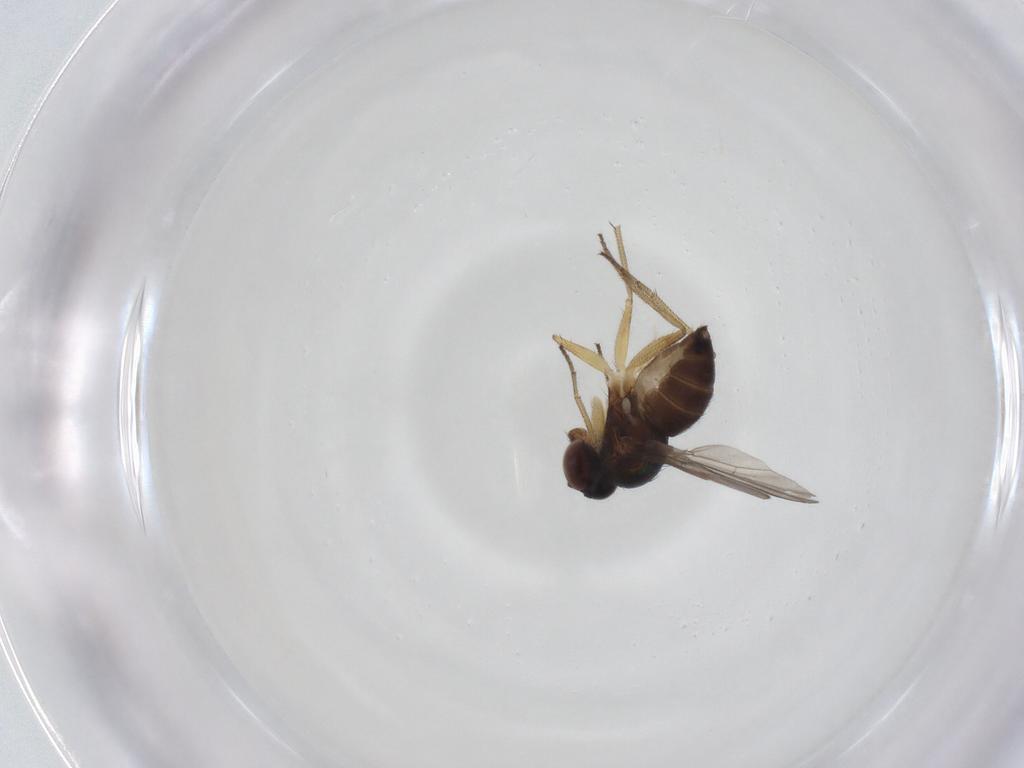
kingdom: Animalia
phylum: Arthropoda
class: Insecta
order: Diptera
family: Dolichopodidae
